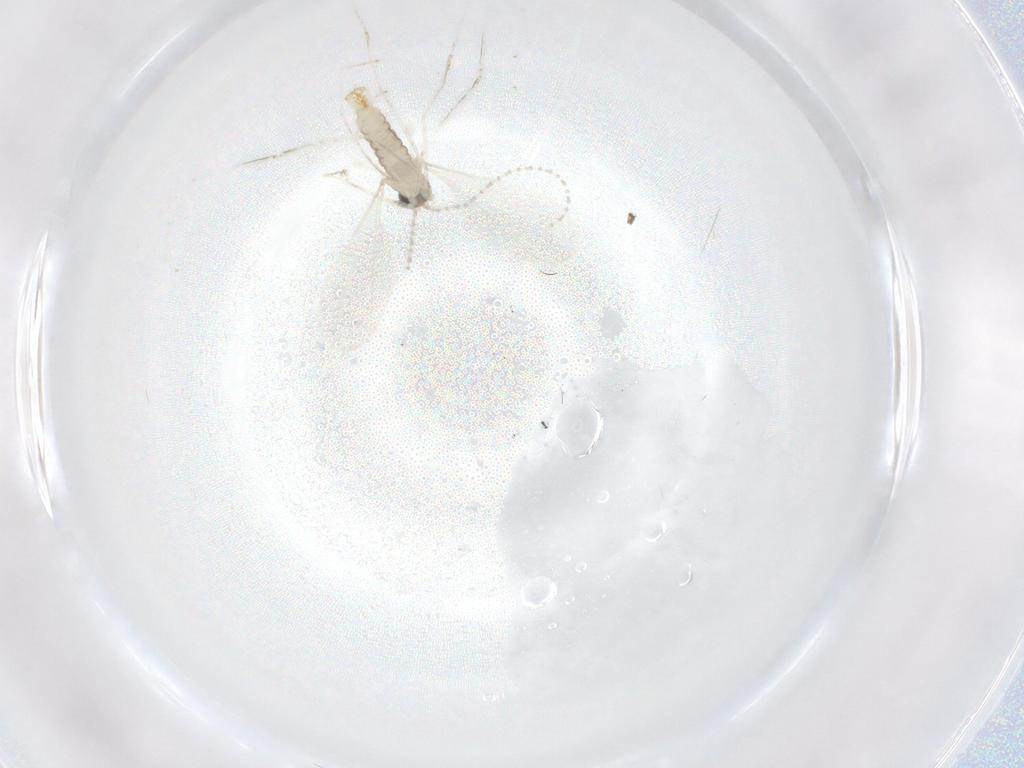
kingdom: Animalia
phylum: Arthropoda
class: Insecta
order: Diptera
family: Cecidomyiidae
